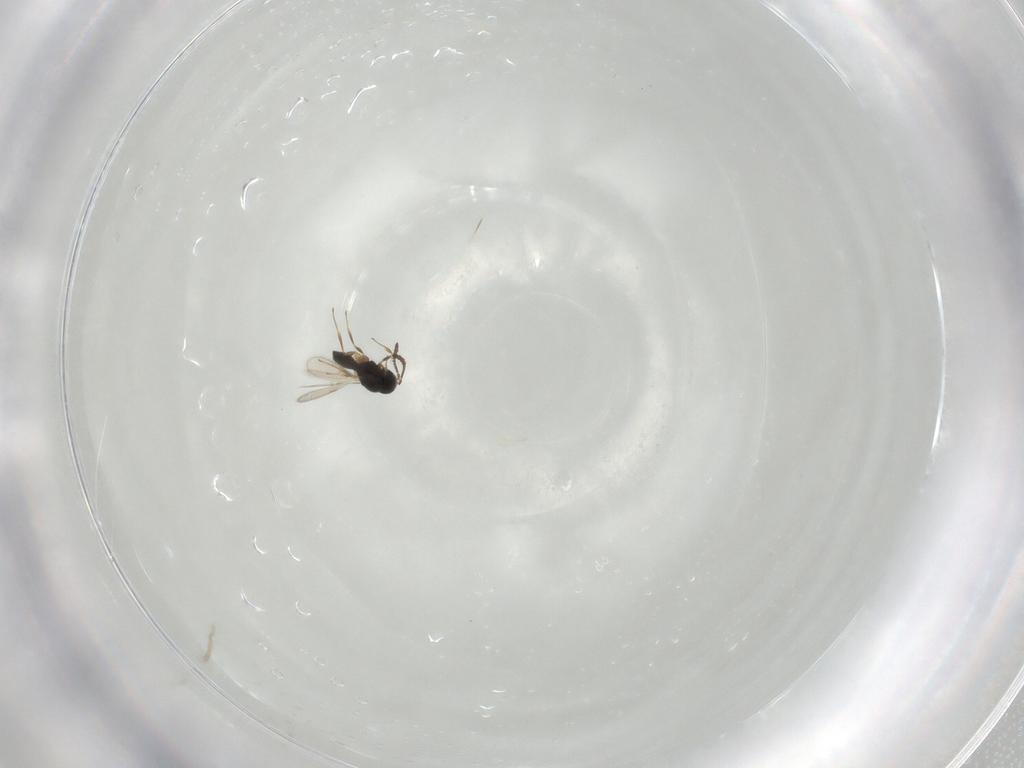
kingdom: Animalia
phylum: Arthropoda
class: Insecta
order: Hymenoptera
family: Scelionidae
